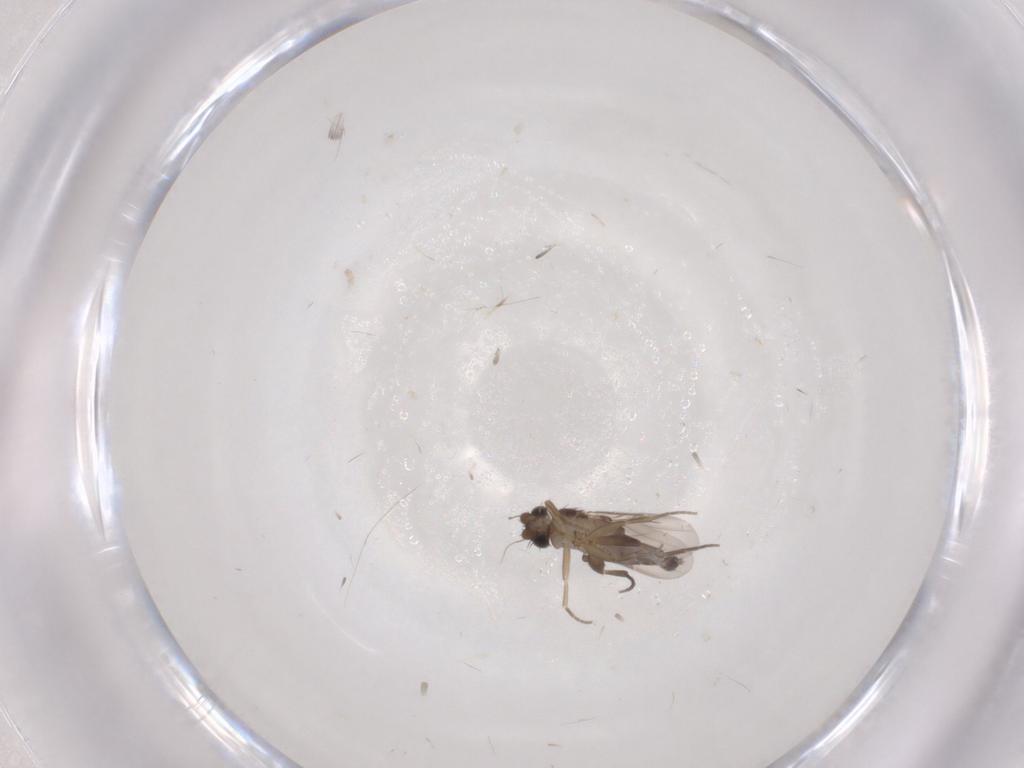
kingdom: Animalia
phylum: Arthropoda
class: Insecta
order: Diptera
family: Phoridae
